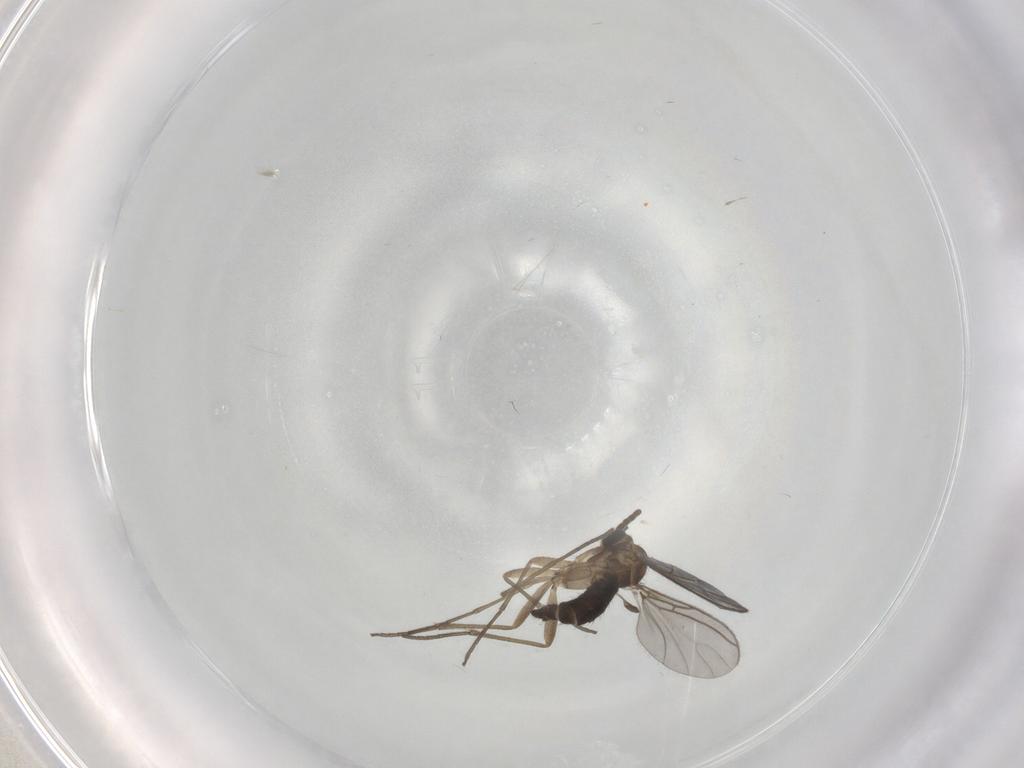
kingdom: Animalia
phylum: Arthropoda
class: Insecta
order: Diptera
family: Sciaridae
